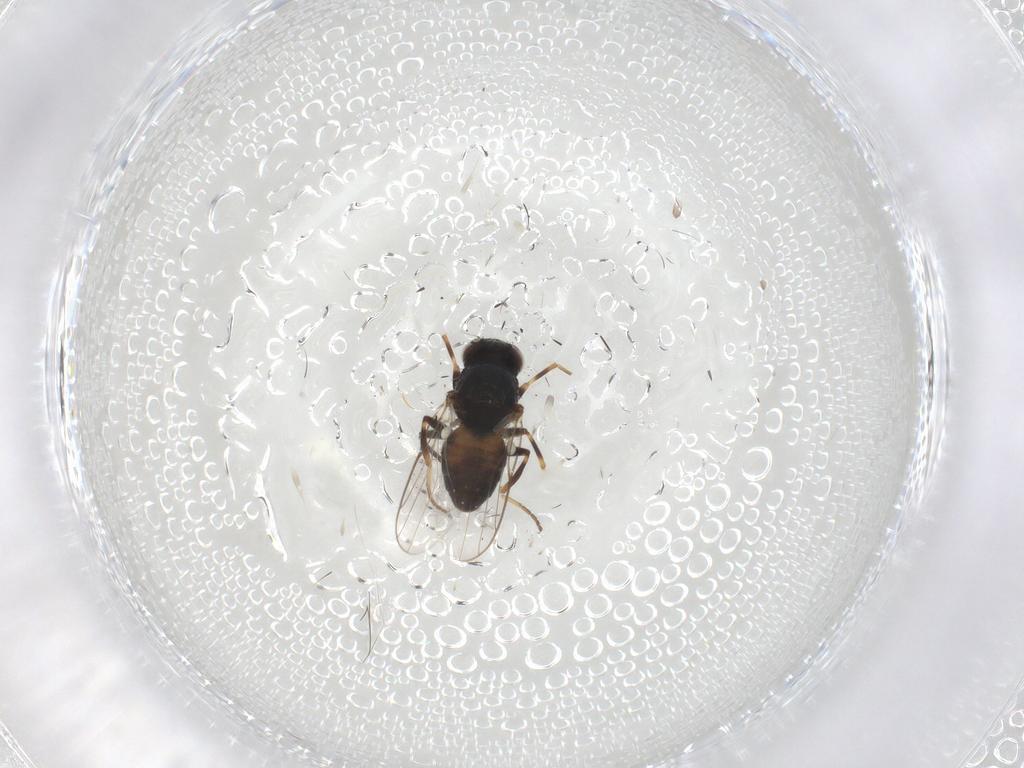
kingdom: Animalia
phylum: Arthropoda
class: Insecta
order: Diptera
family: Chloropidae
